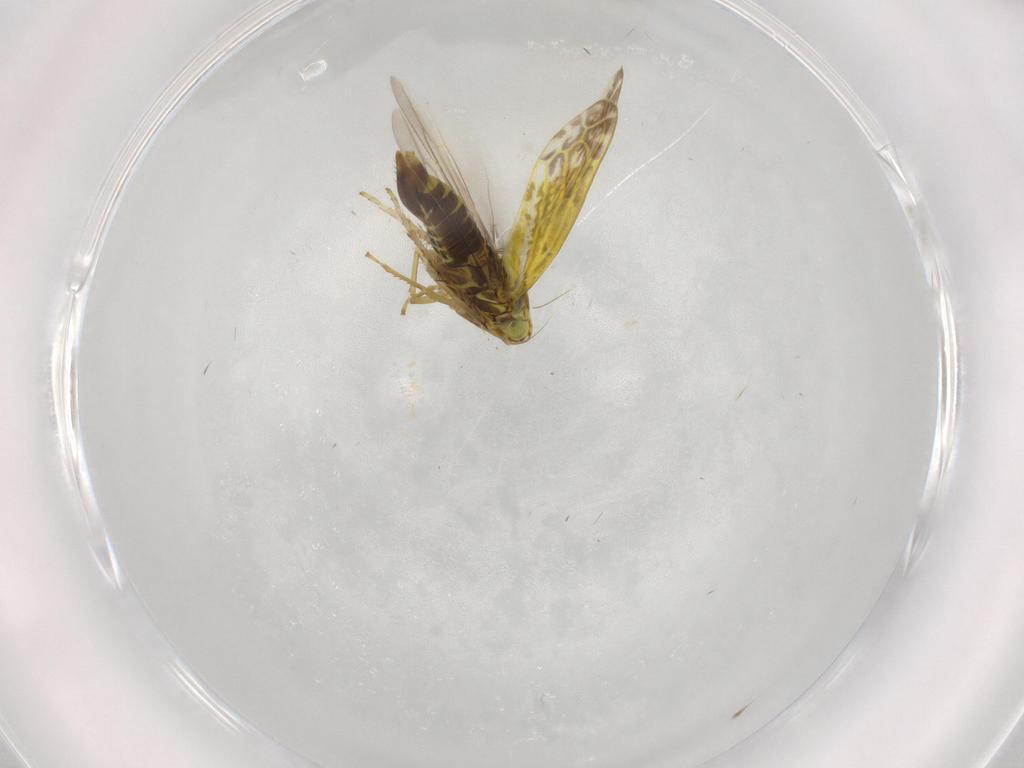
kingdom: Animalia
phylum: Arthropoda
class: Insecta
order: Hemiptera
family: Cicadellidae
